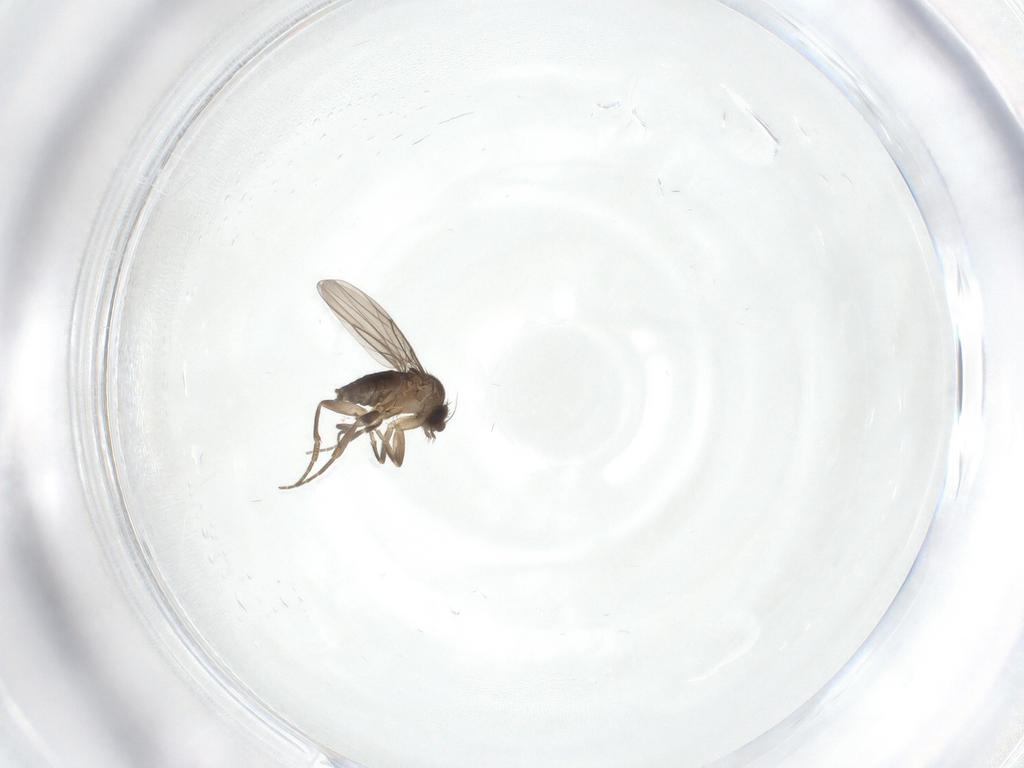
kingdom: Animalia
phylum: Arthropoda
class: Insecta
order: Diptera
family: Phoridae
